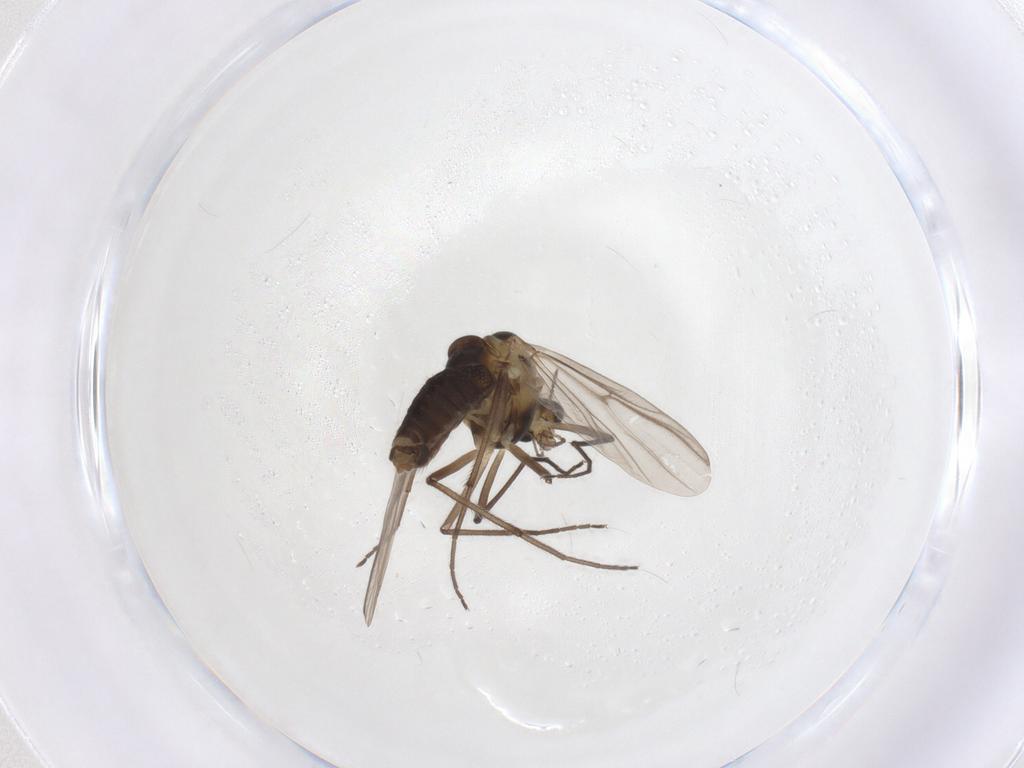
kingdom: Animalia
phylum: Arthropoda
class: Insecta
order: Diptera
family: Chironomidae
